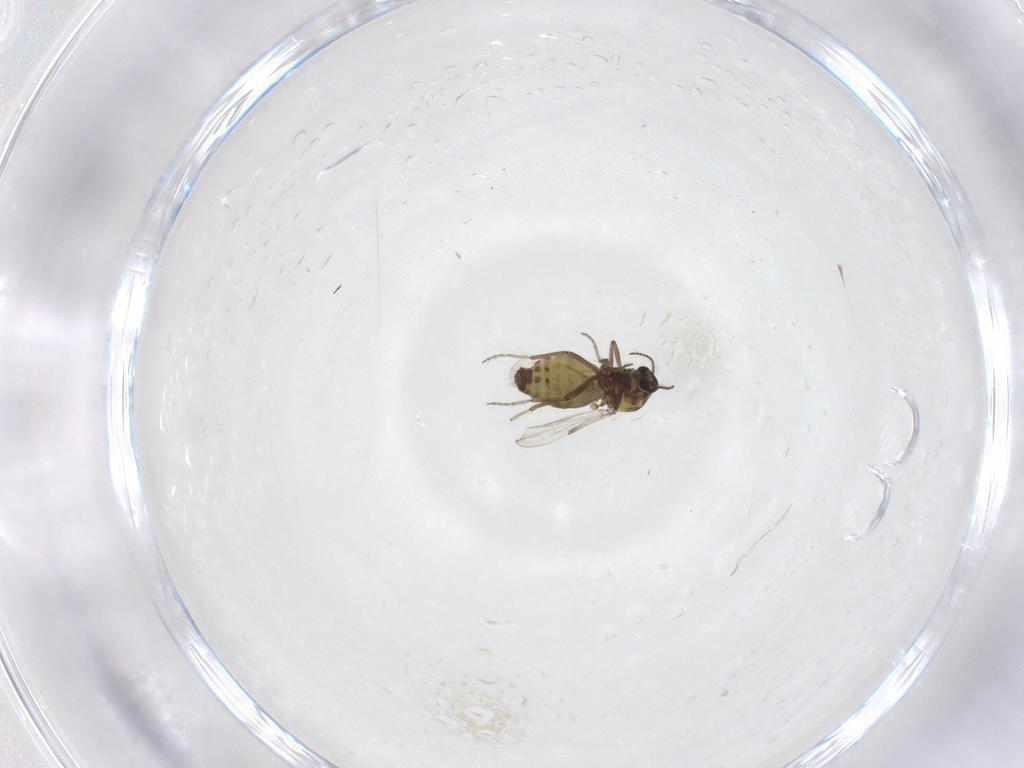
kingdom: Animalia
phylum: Arthropoda
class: Insecta
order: Diptera
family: Ceratopogonidae
